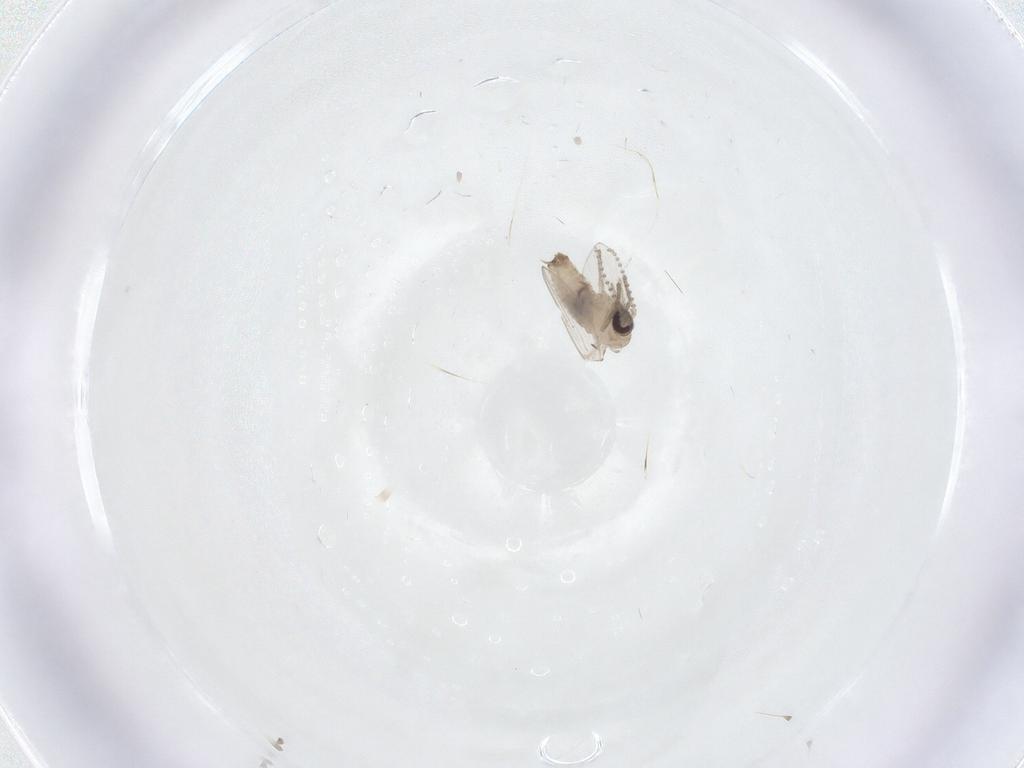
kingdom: Animalia
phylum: Arthropoda
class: Insecta
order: Diptera
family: Psychodidae
